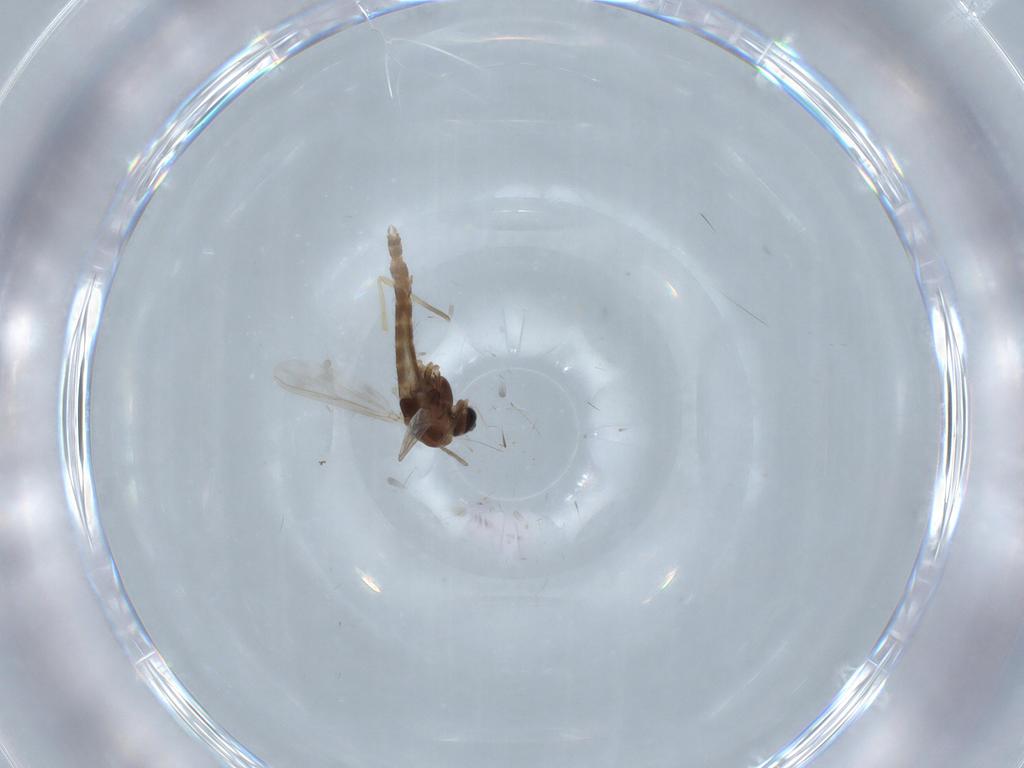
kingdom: Animalia
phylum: Arthropoda
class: Insecta
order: Diptera
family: Chironomidae
